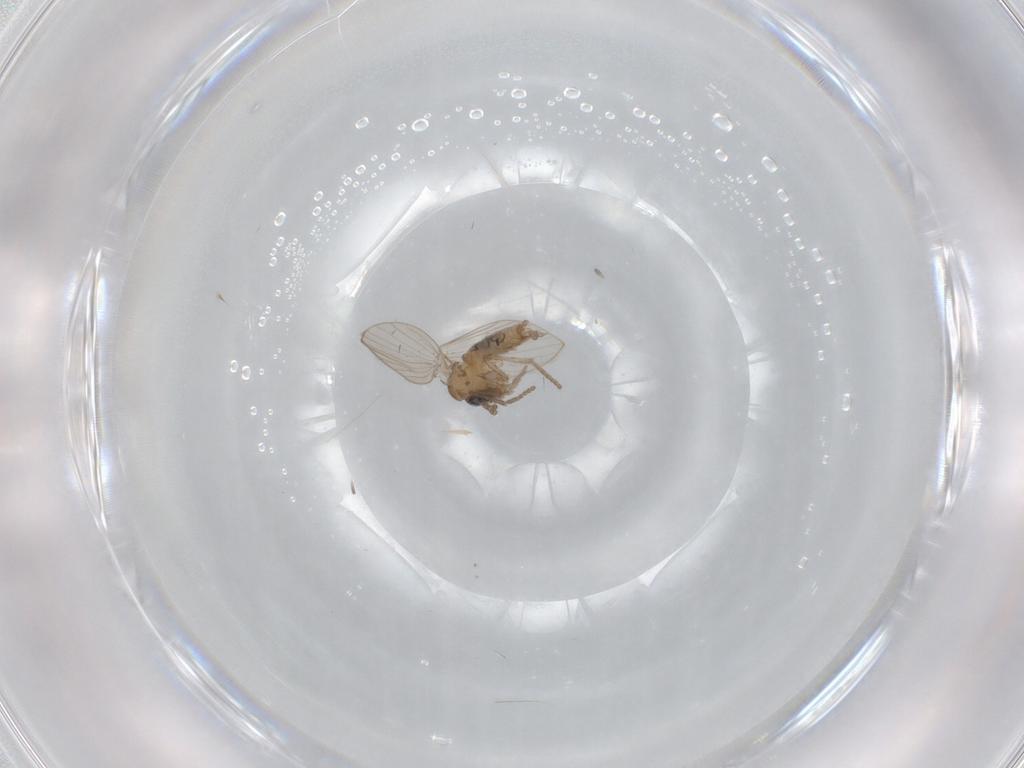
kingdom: Animalia
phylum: Arthropoda
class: Insecta
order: Diptera
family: Psychodidae
